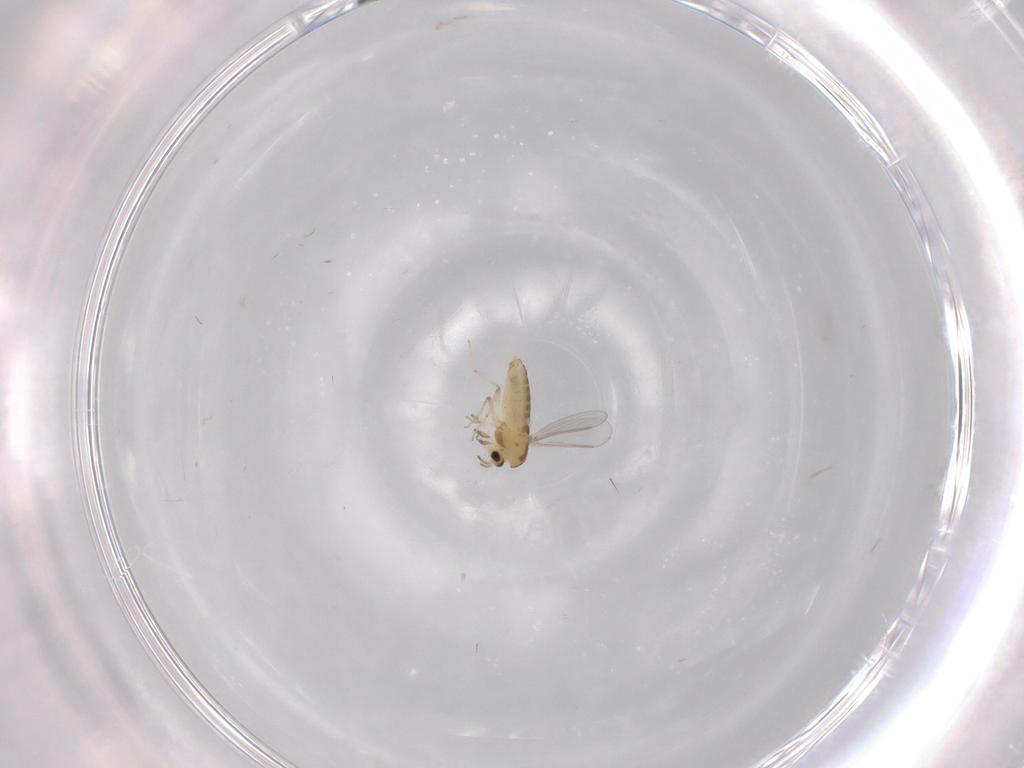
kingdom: Animalia
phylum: Arthropoda
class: Insecta
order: Diptera
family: Limoniidae
